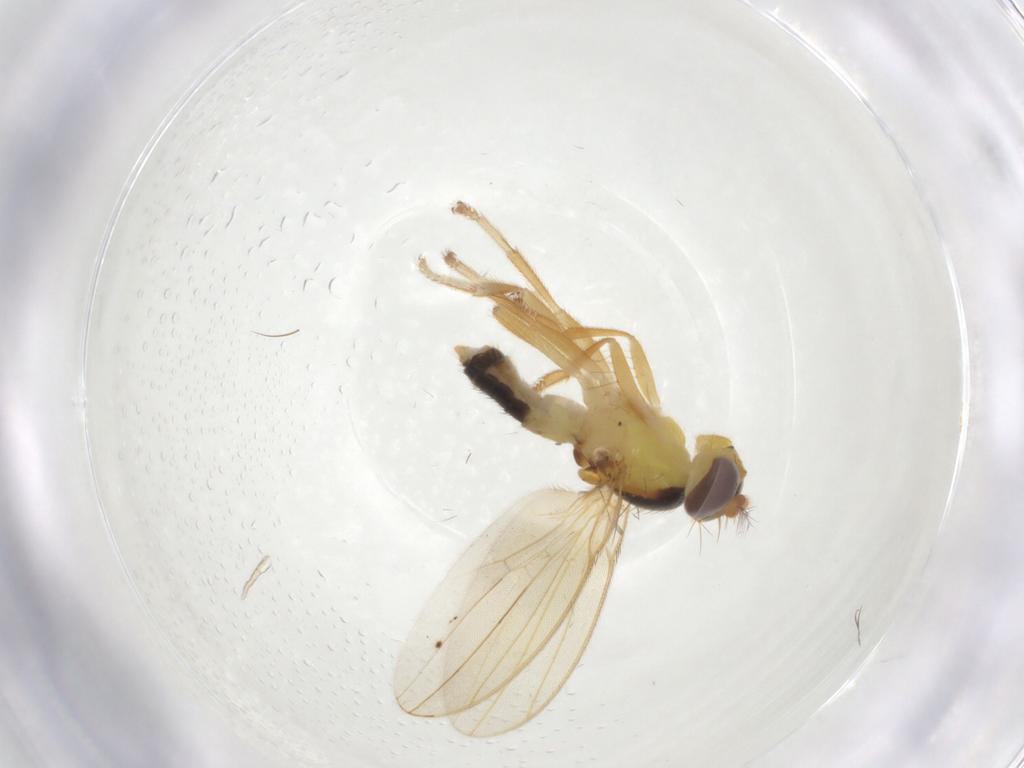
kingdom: Animalia
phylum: Arthropoda
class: Insecta
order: Diptera
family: Periscelididae
